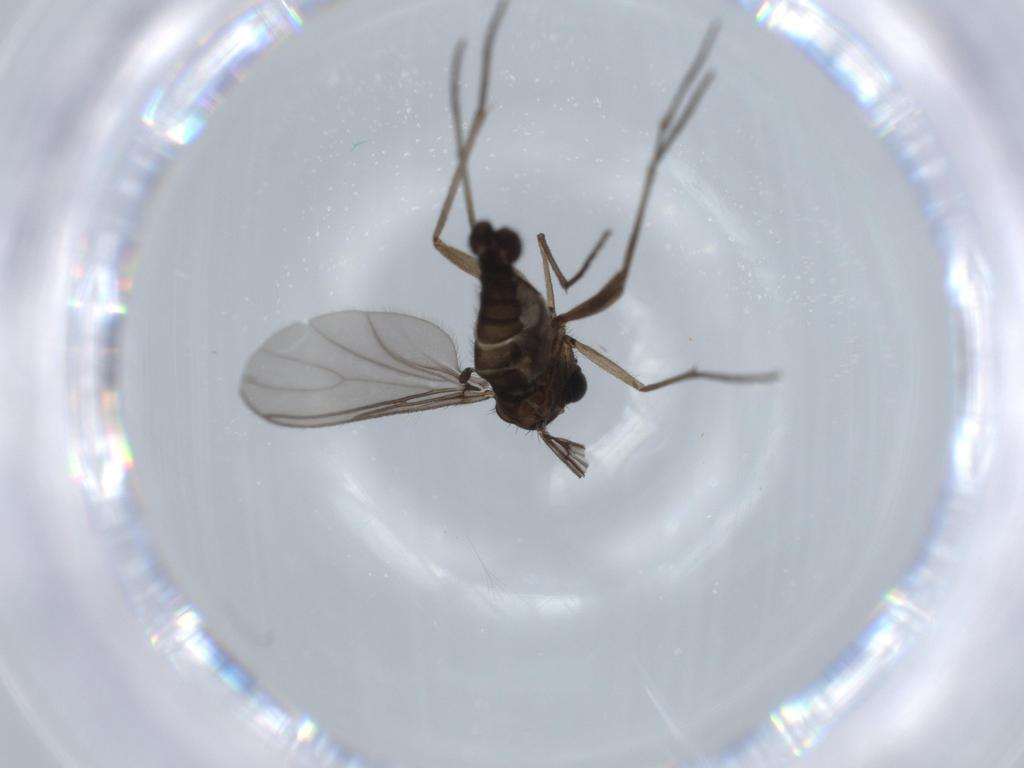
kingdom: Animalia
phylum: Arthropoda
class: Insecta
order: Diptera
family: Sciaridae
